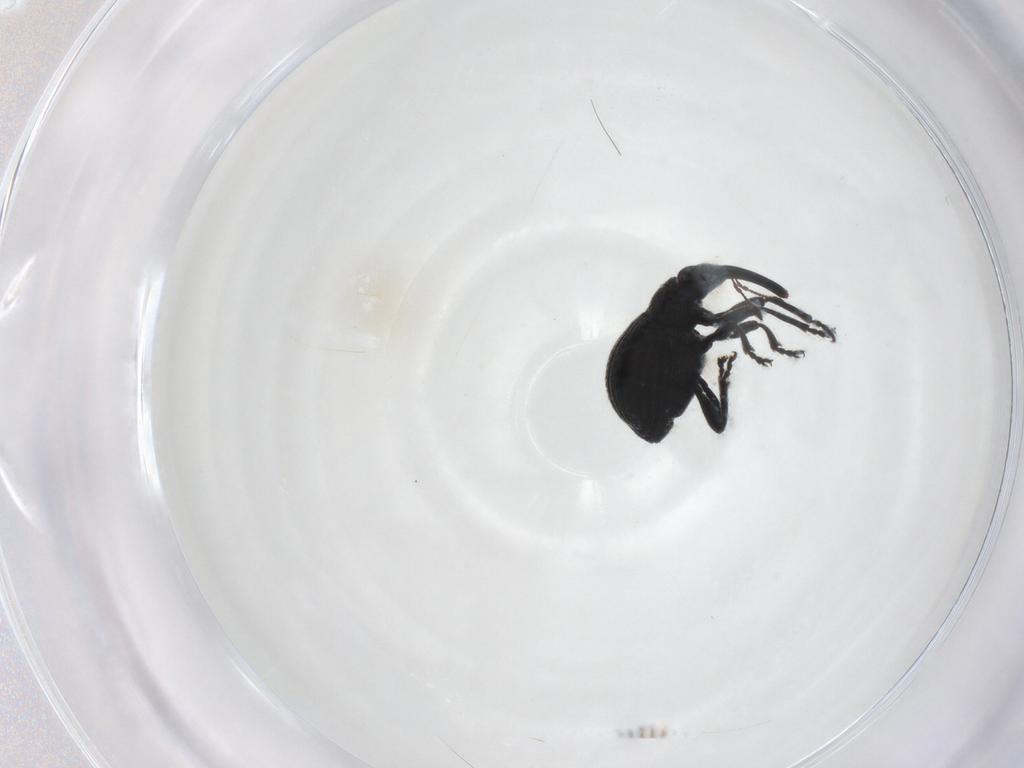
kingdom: Animalia
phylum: Arthropoda
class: Insecta
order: Coleoptera
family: Brentidae
